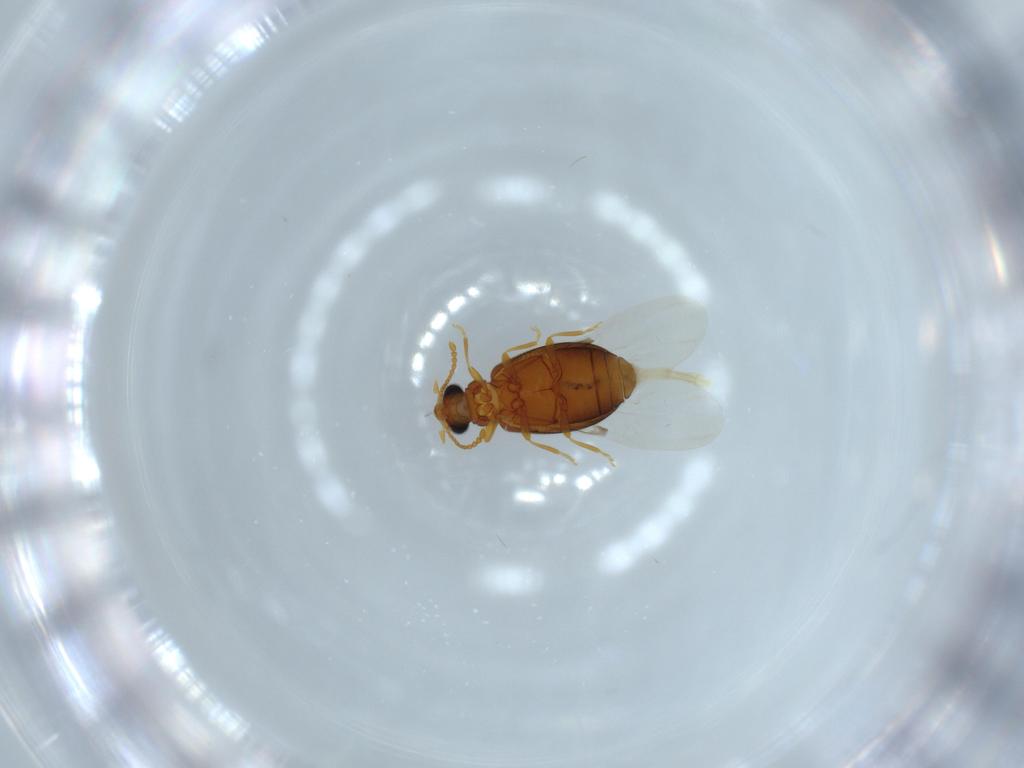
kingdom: Animalia
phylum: Arthropoda
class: Insecta
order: Coleoptera
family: Aderidae
